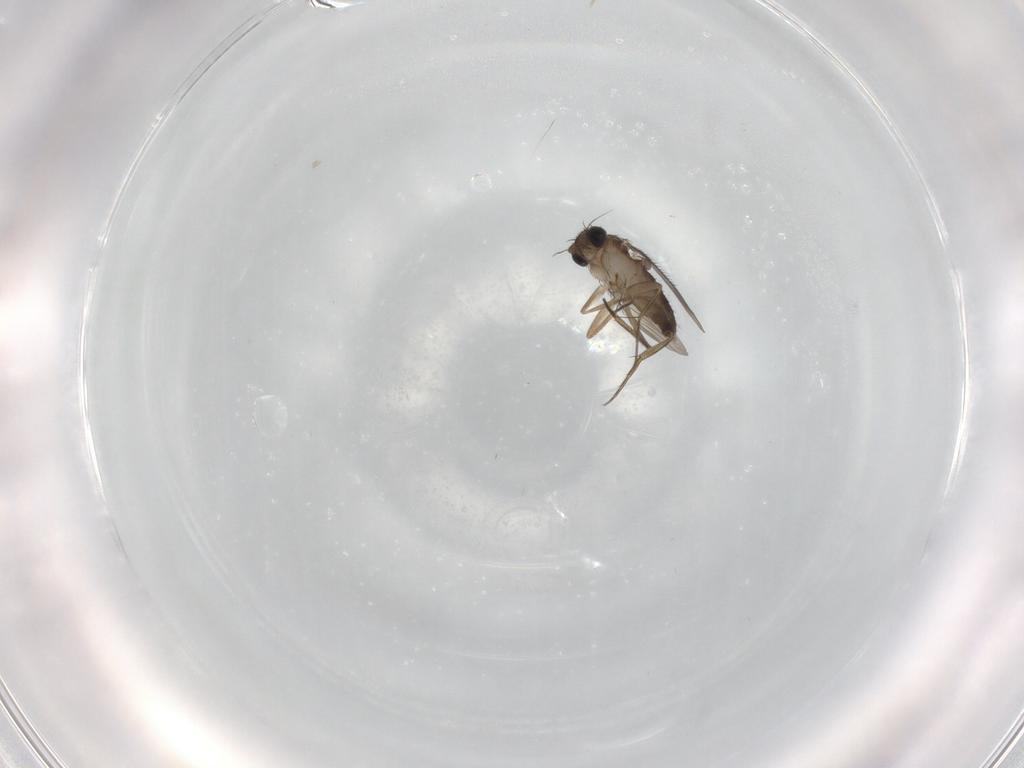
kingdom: Animalia
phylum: Arthropoda
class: Insecta
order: Diptera
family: Phoridae
